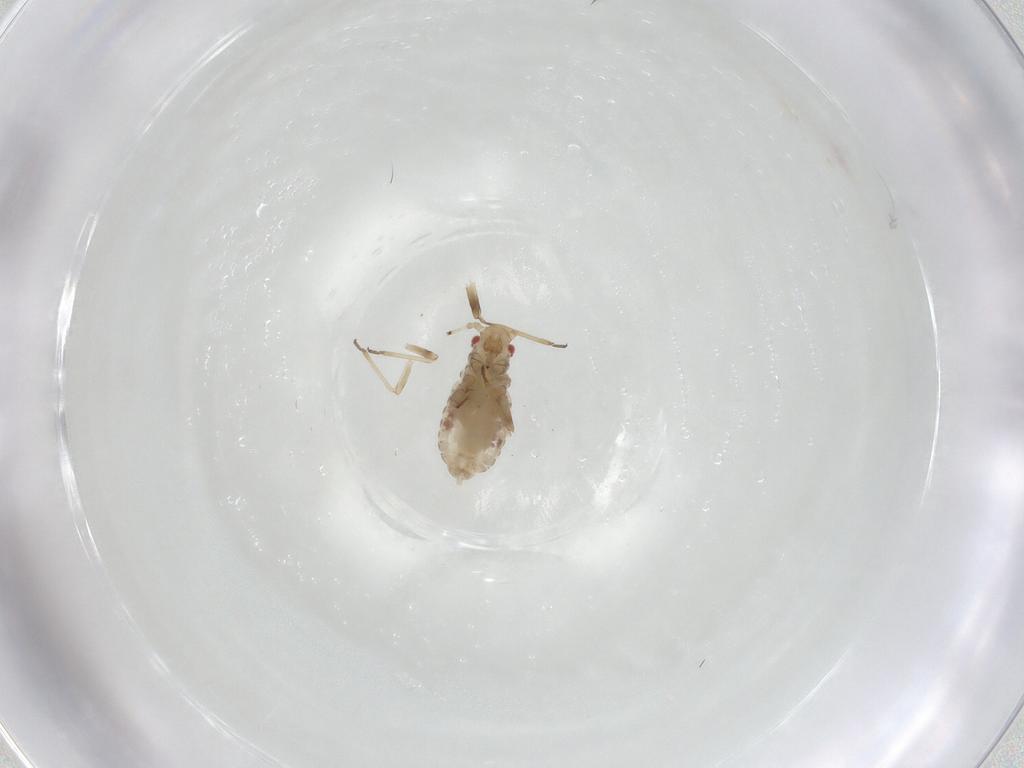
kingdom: Animalia
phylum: Arthropoda
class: Insecta
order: Hemiptera
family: Aphididae
